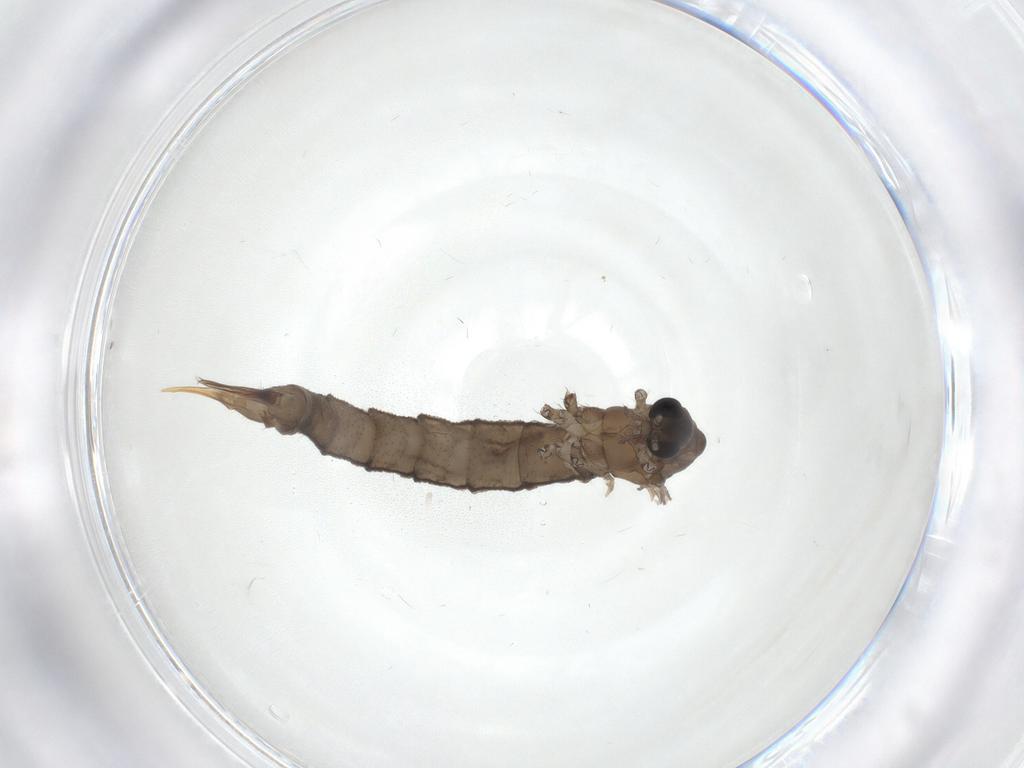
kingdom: Animalia
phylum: Arthropoda
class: Insecta
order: Diptera
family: Limoniidae
